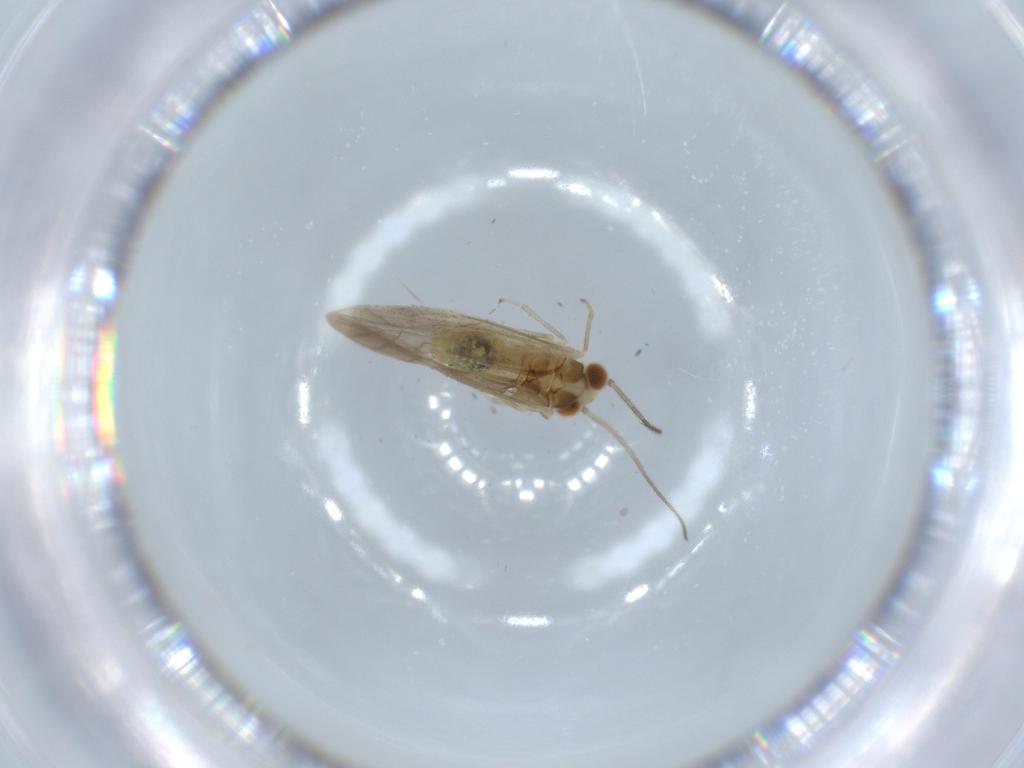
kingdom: Animalia
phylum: Arthropoda
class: Insecta
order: Psocodea
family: Caeciliusidae
